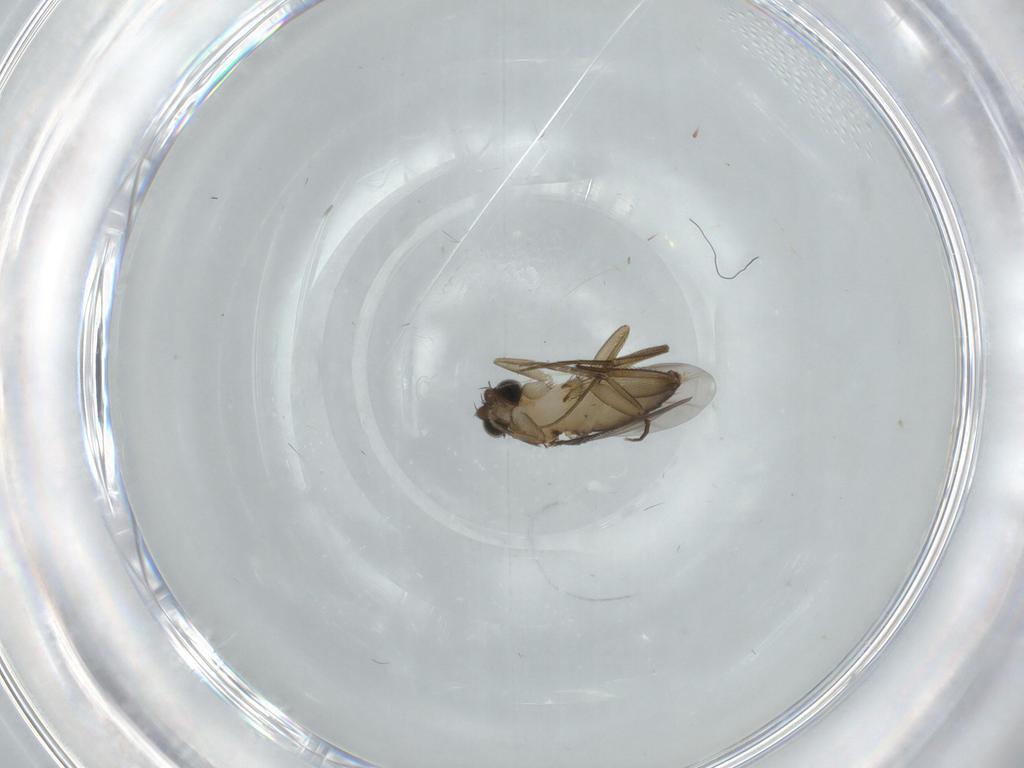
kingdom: Animalia
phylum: Arthropoda
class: Insecta
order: Diptera
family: Phoridae
